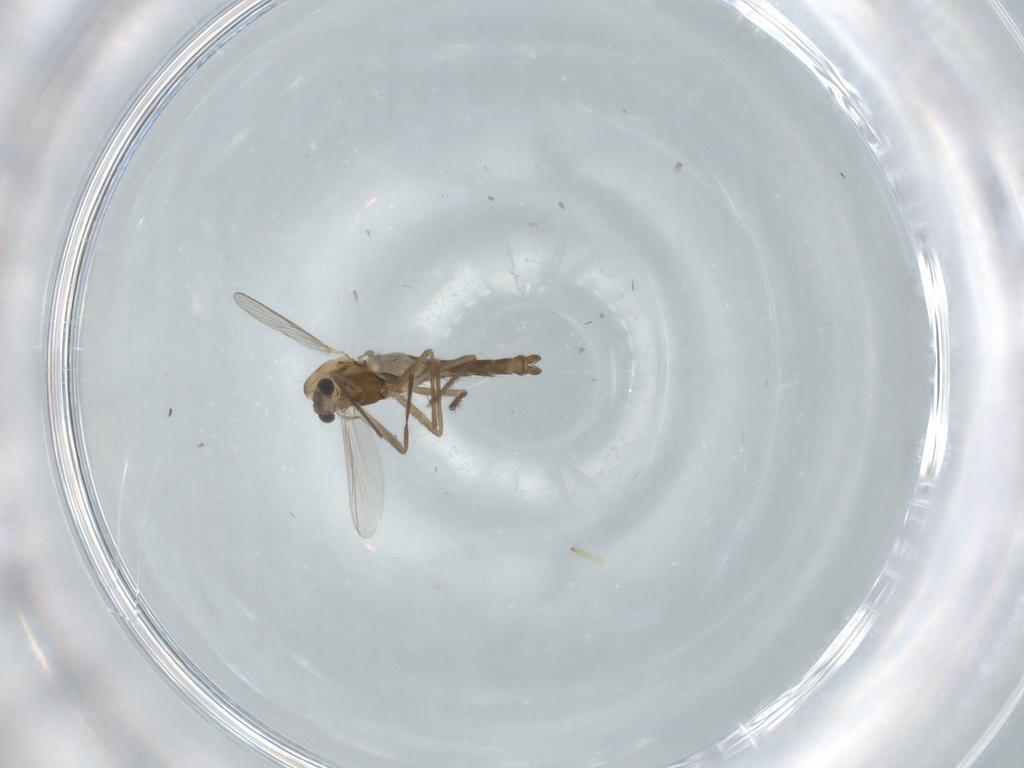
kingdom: Animalia
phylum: Arthropoda
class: Insecta
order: Diptera
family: Chironomidae
